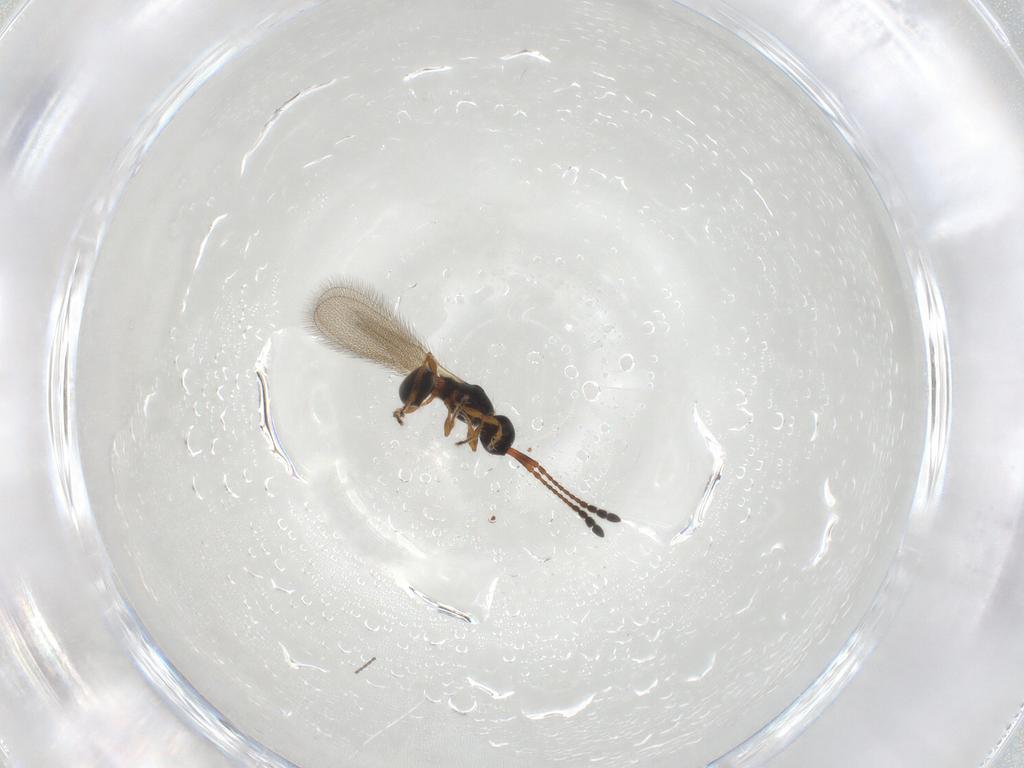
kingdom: Animalia
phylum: Arthropoda
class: Insecta
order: Hymenoptera
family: Diapriidae
